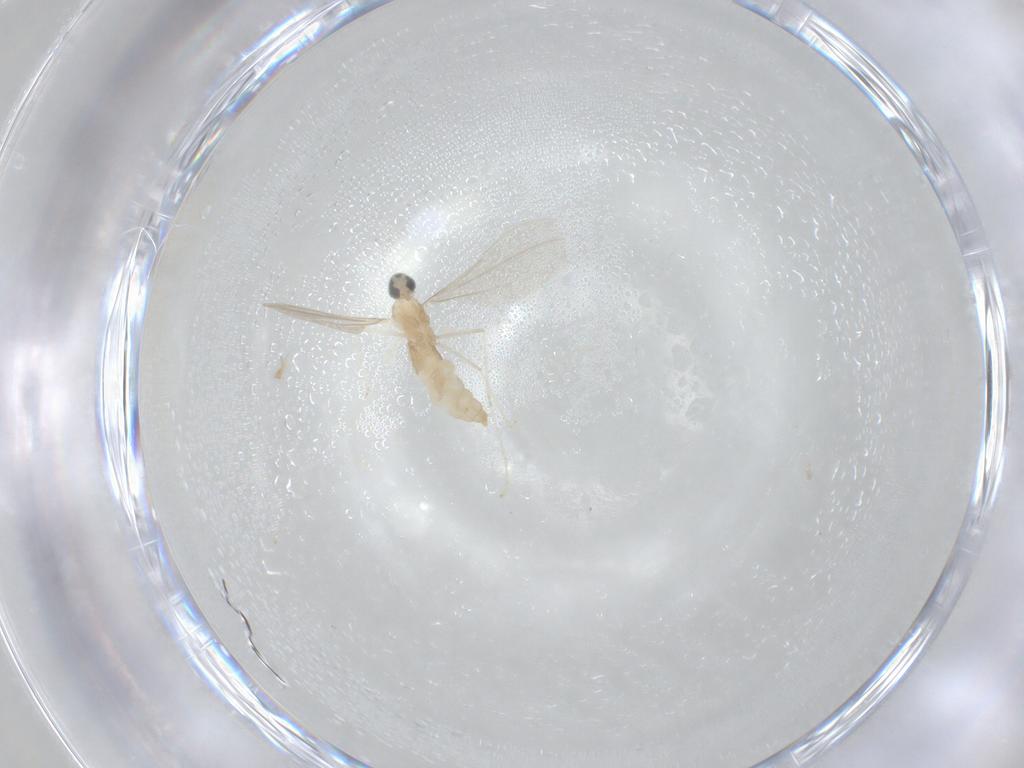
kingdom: Animalia
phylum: Arthropoda
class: Insecta
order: Diptera
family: Cecidomyiidae
